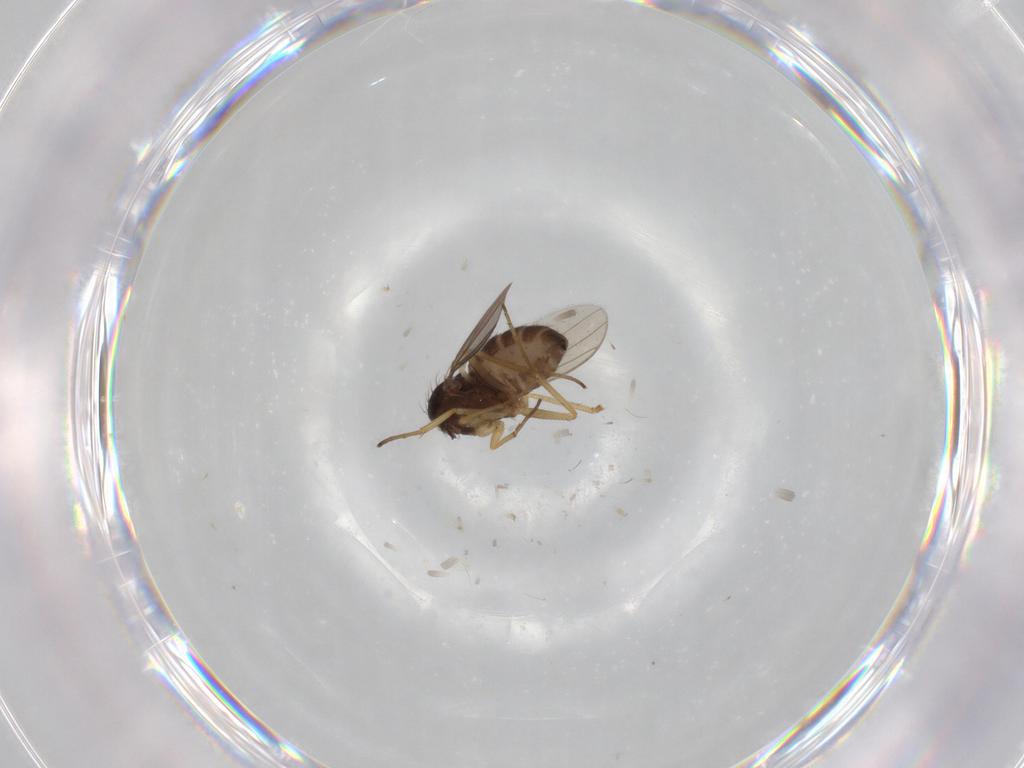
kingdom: Animalia
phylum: Arthropoda
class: Insecta
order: Diptera
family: Dolichopodidae
